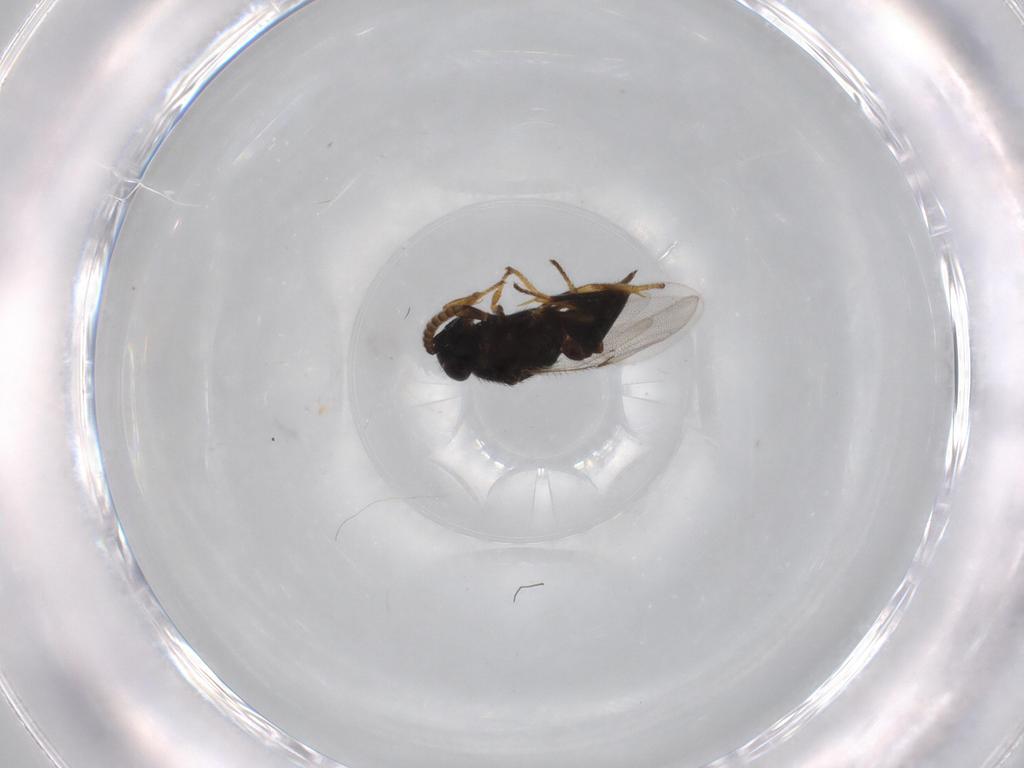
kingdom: Animalia
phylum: Arthropoda
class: Insecta
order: Hymenoptera
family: Encyrtidae
